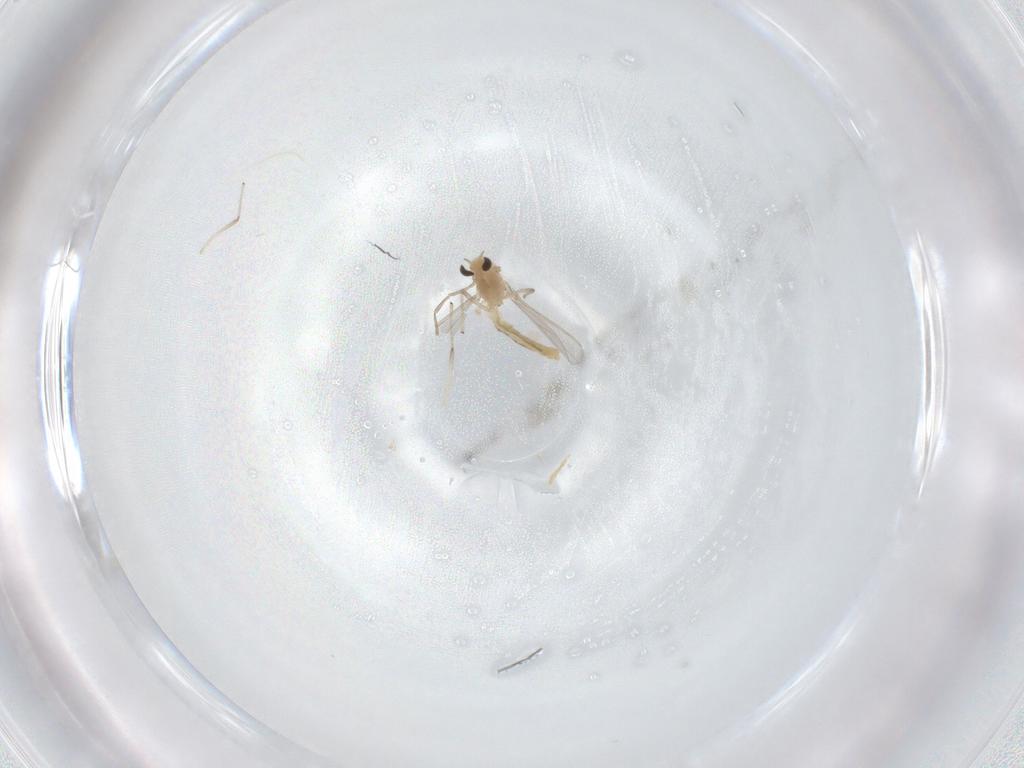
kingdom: Animalia
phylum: Arthropoda
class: Insecta
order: Diptera
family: Chironomidae
